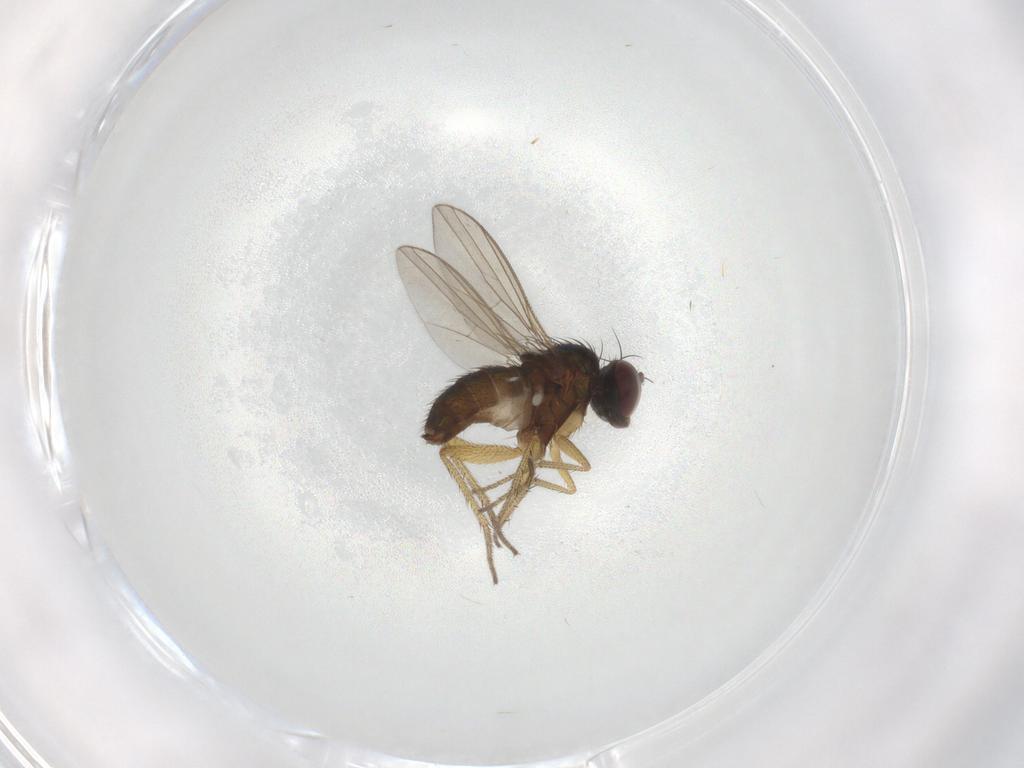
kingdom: Animalia
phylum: Arthropoda
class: Insecta
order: Diptera
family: Dolichopodidae
